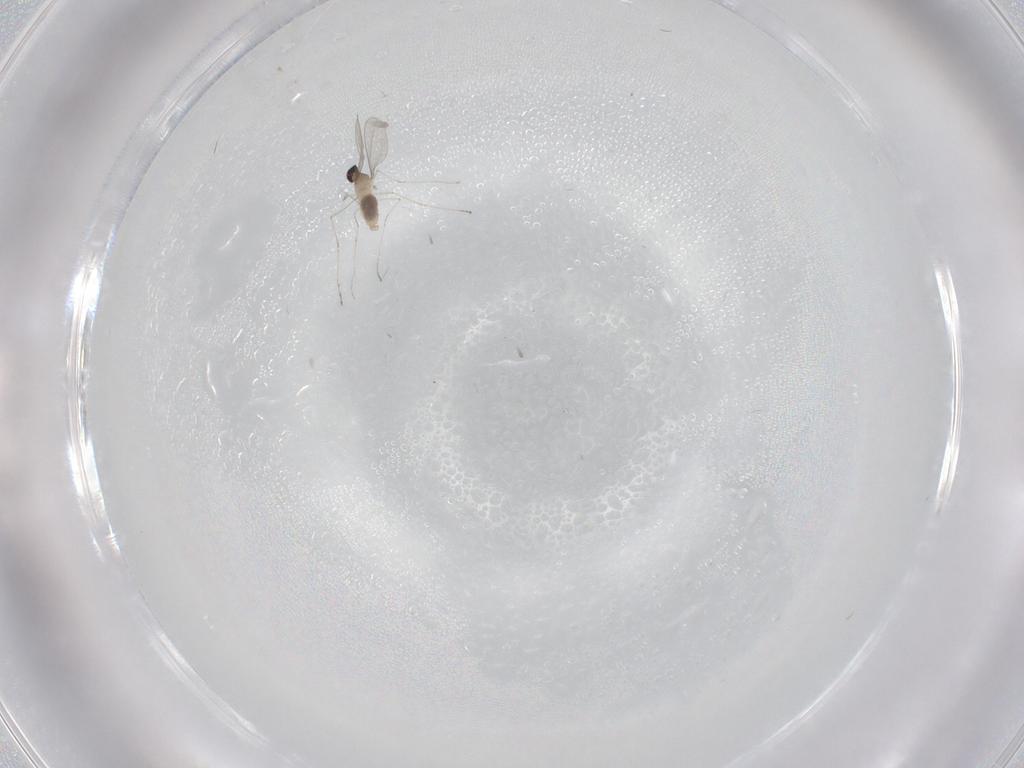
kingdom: Animalia
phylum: Arthropoda
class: Insecta
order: Diptera
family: Cecidomyiidae
